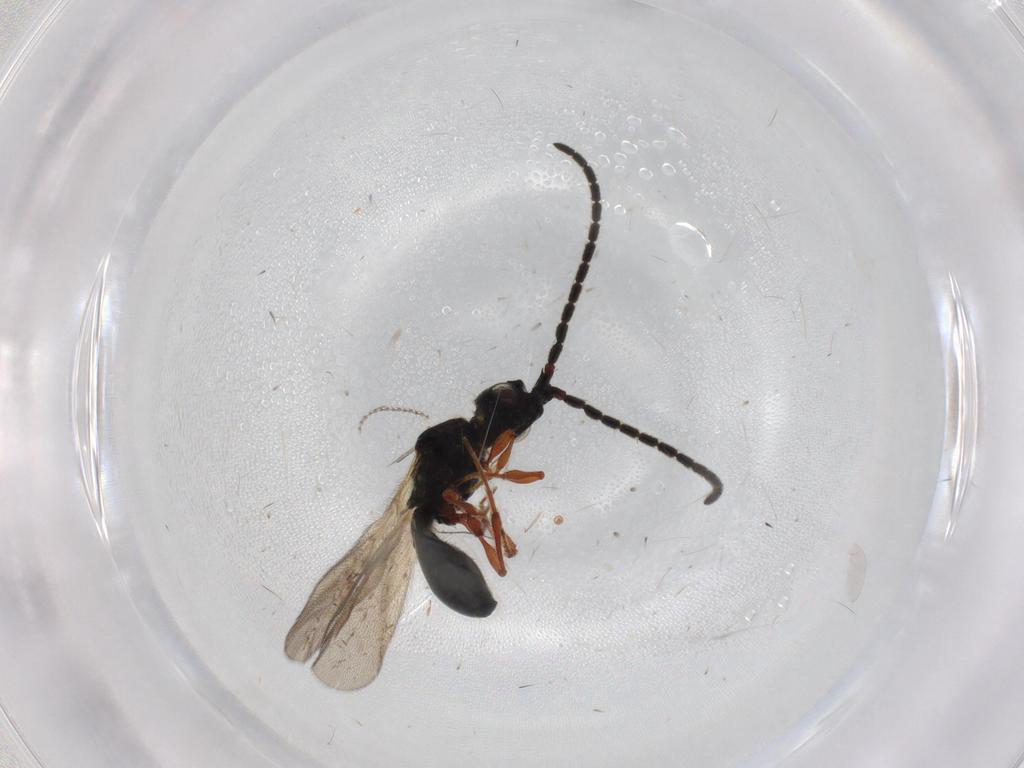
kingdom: Animalia
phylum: Arthropoda
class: Insecta
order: Hymenoptera
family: Diapriidae
